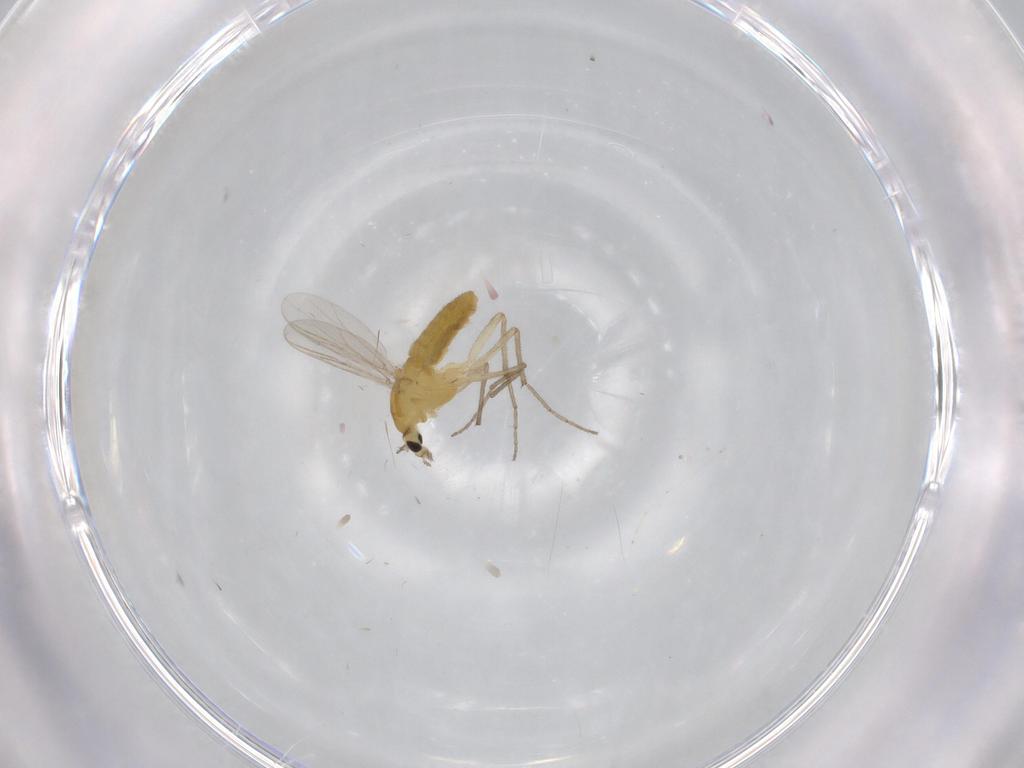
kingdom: Animalia
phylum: Arthropoda
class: Insecta
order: Diptera
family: Chironomidae
